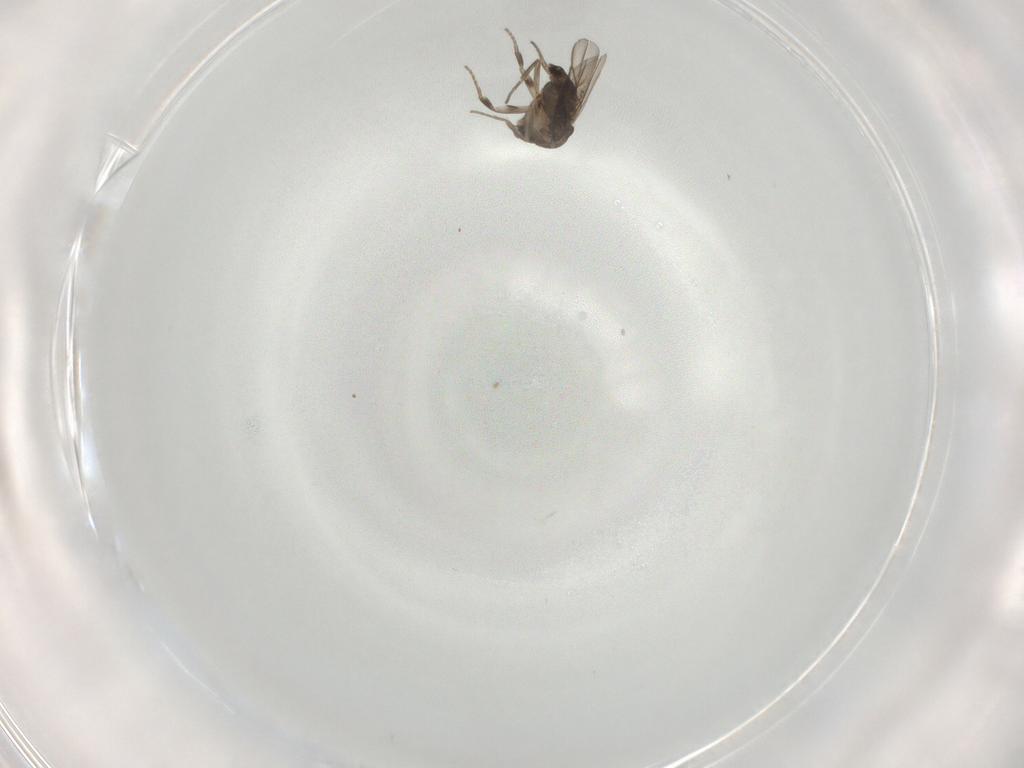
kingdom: Animalia
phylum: Arthropoda
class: Insecta
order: Diptera
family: Phoridae
